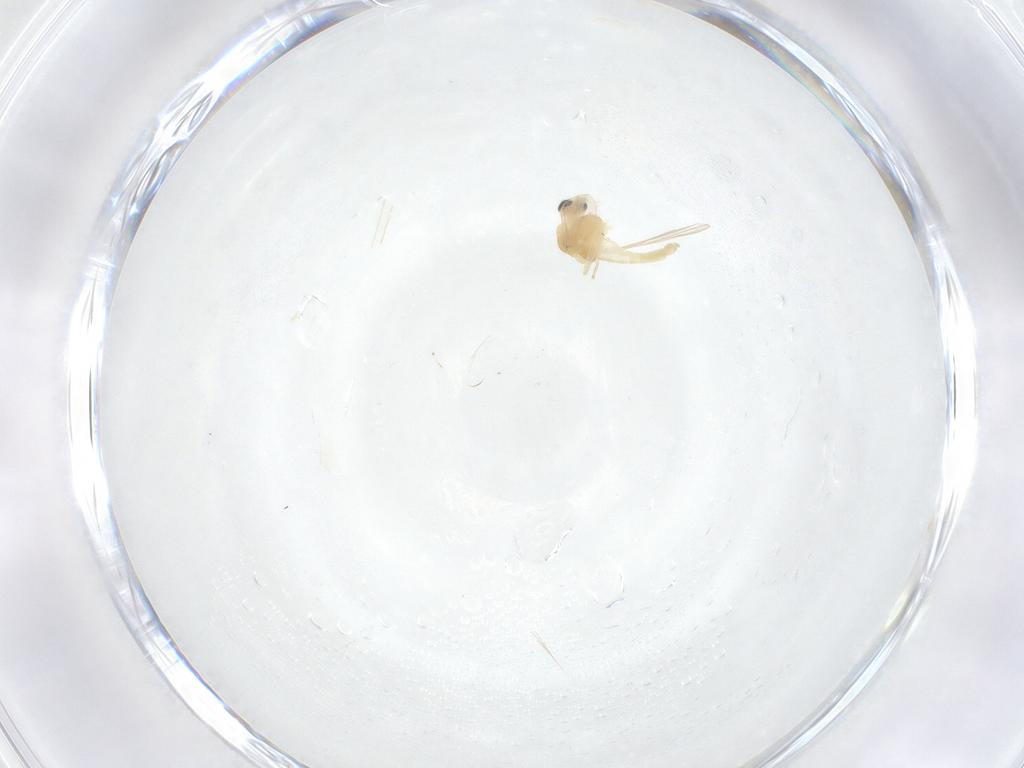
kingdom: Animalia
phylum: Arthropoda
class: Insecta
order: Diptera
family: Chironomidae
